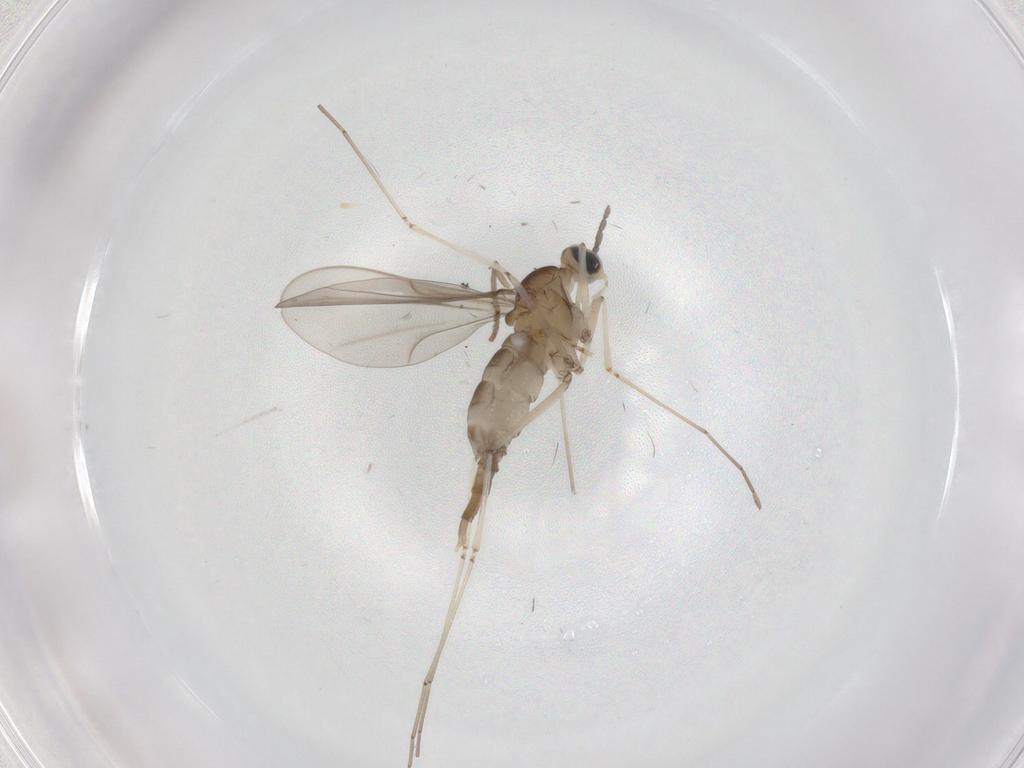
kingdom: Animalia
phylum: Arthropoda
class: Insecta
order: Diptera
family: Cecidomyiidae
